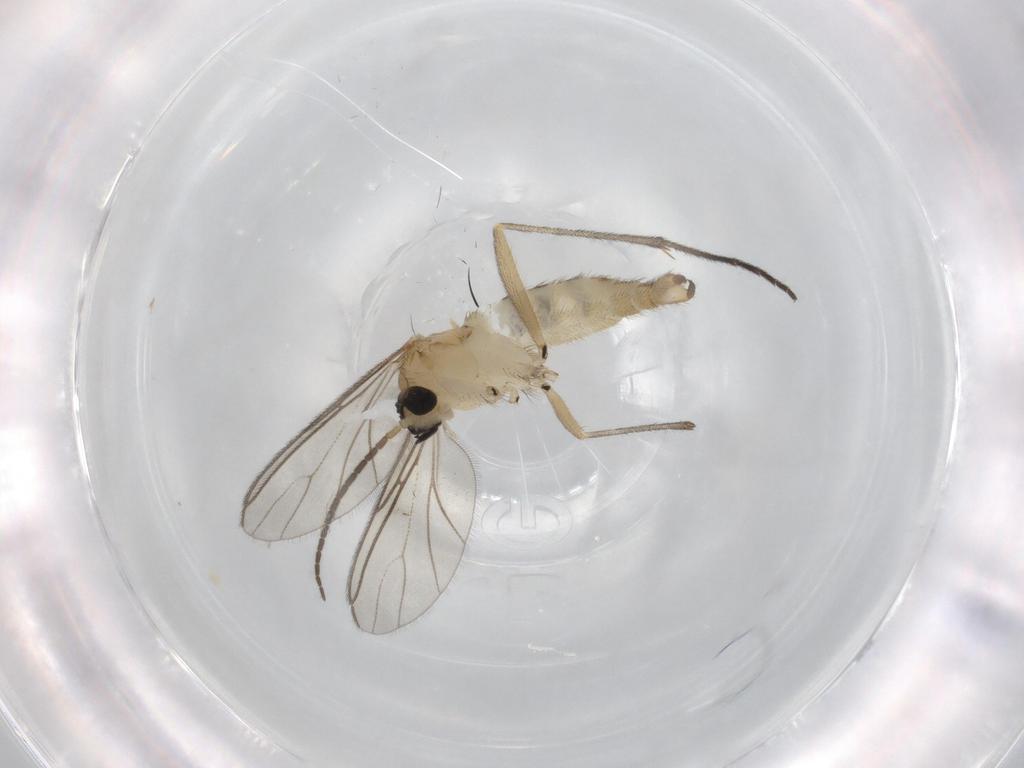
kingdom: Animalia
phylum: Arthropoda
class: Insecta
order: Diptera
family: Sciaridae
